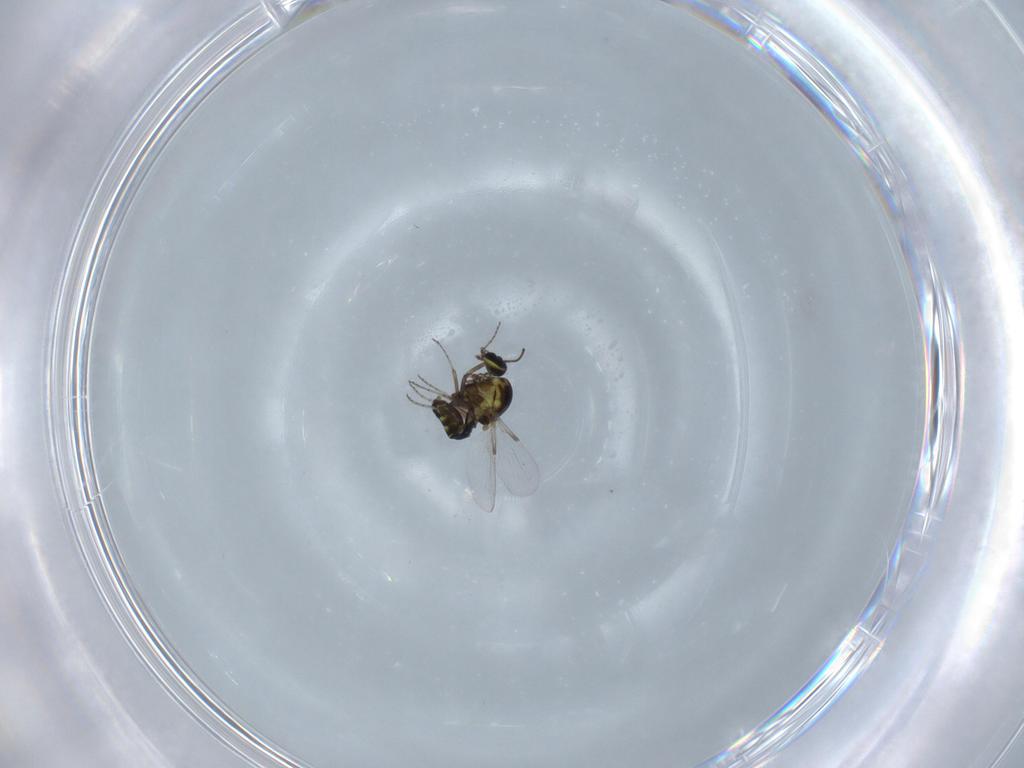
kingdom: Animalia
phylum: Arthropoda
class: Insecta
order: Diptera
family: Ceratopogonidae
